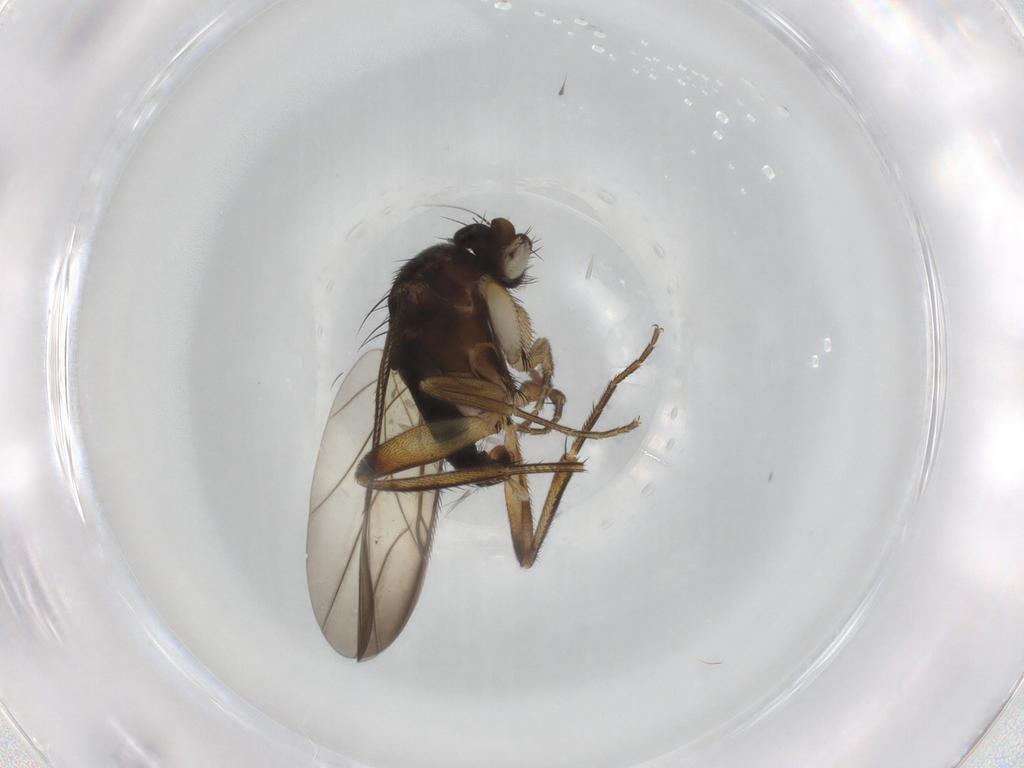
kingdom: Animalia
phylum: Arthropoda
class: Insecta
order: Diptera
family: Phoridae
